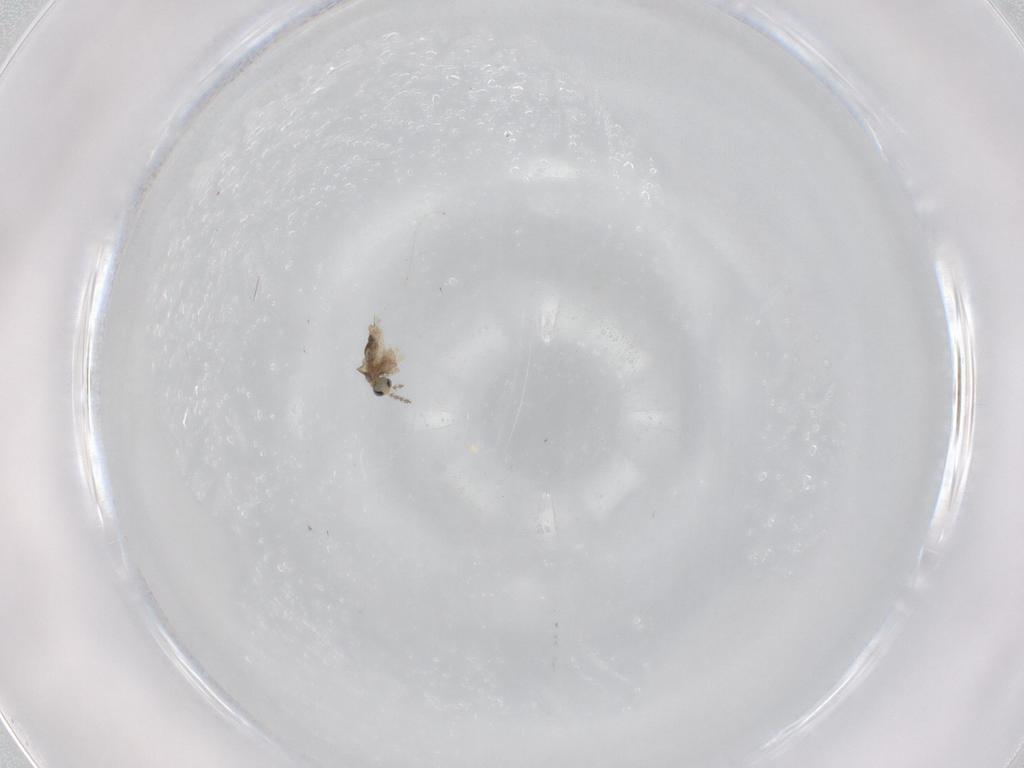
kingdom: Animalia
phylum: Arthropoda
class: Insecta
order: Diptera
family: Cecidomyiidae
